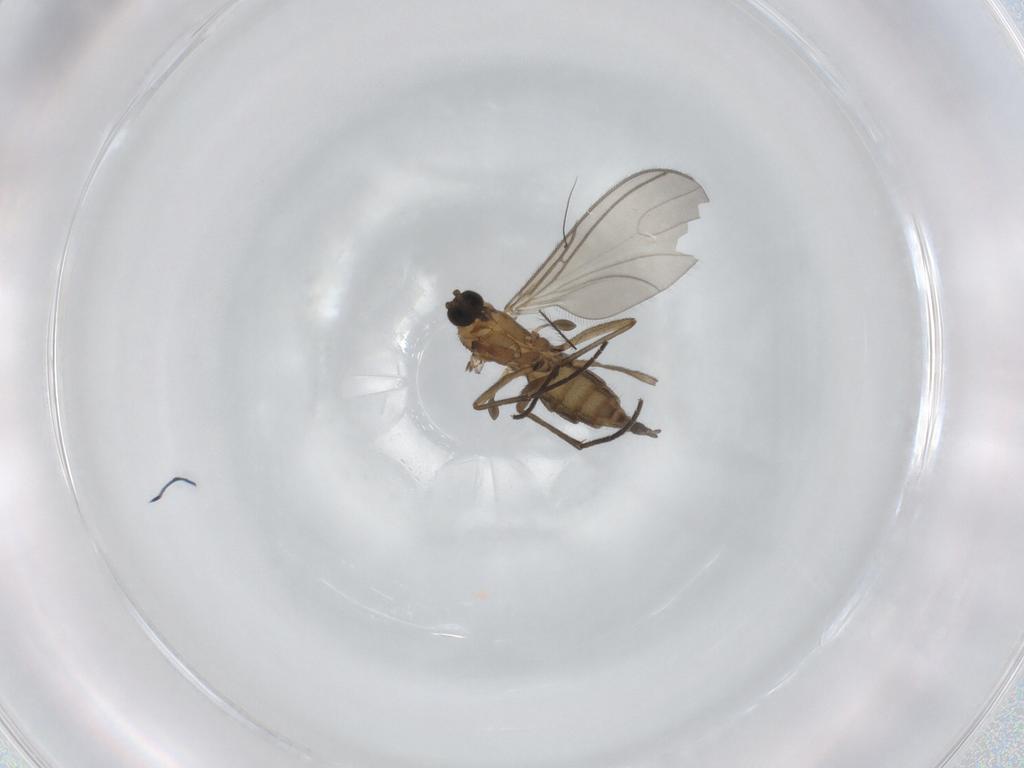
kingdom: Animalia
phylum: Arthropoda
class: Insecta
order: Diptera
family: Sciaridae
